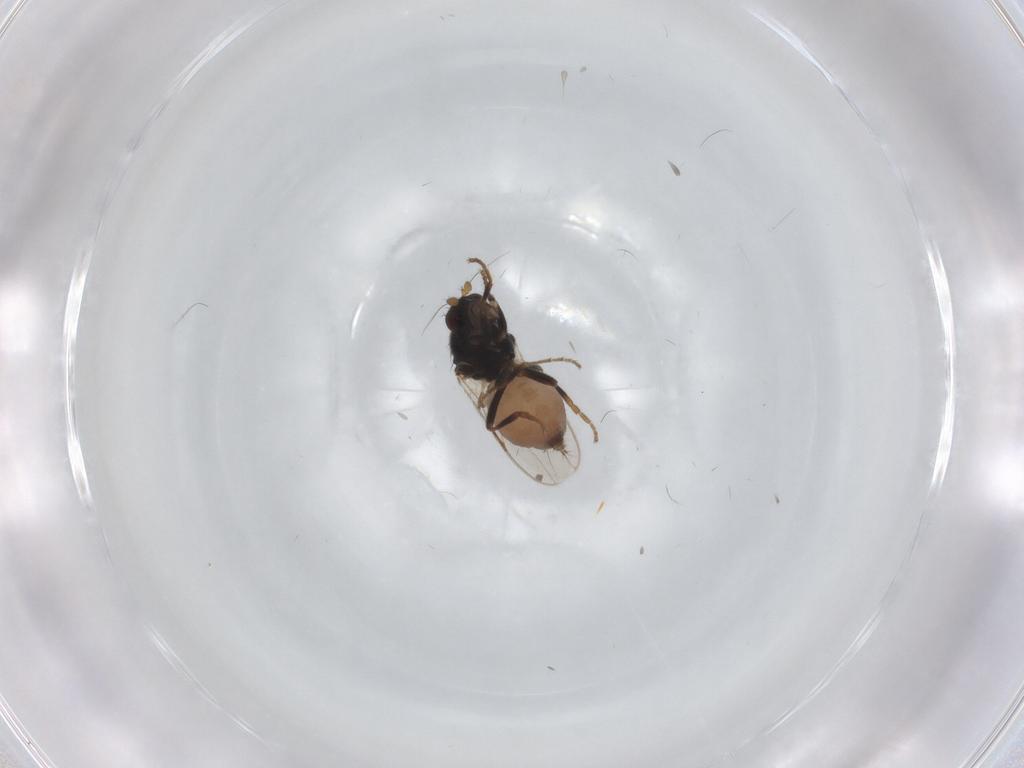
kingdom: Animalia
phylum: Arthropoda
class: Insecta
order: Diptera
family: Sphaeroceridae
